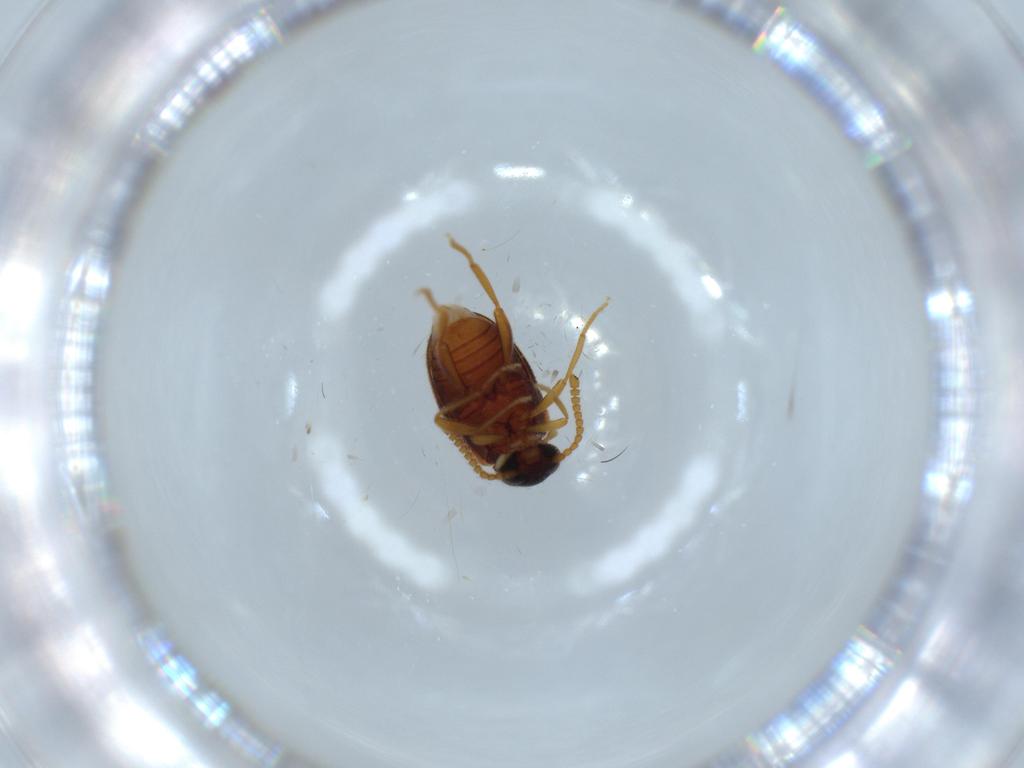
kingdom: Animalia
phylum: Arthropoda
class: Insecta
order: Coleoptera
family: Aderidae
